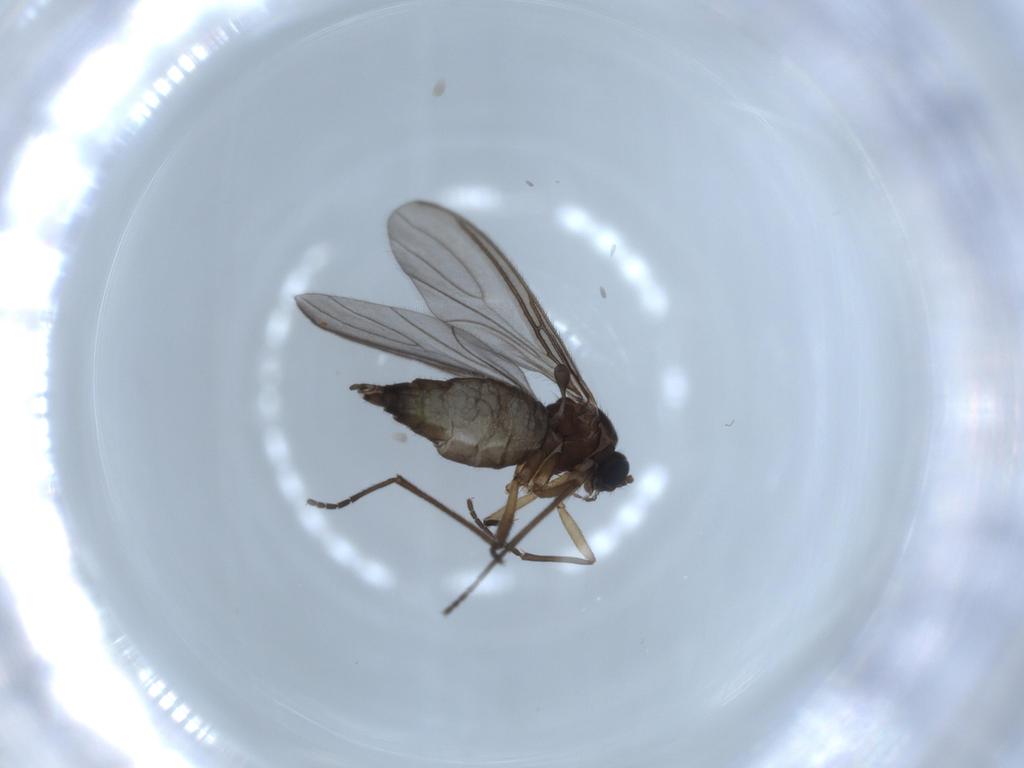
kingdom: Animalia
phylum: Arthropoda
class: Insecta
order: Diptera
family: Sciaridae
